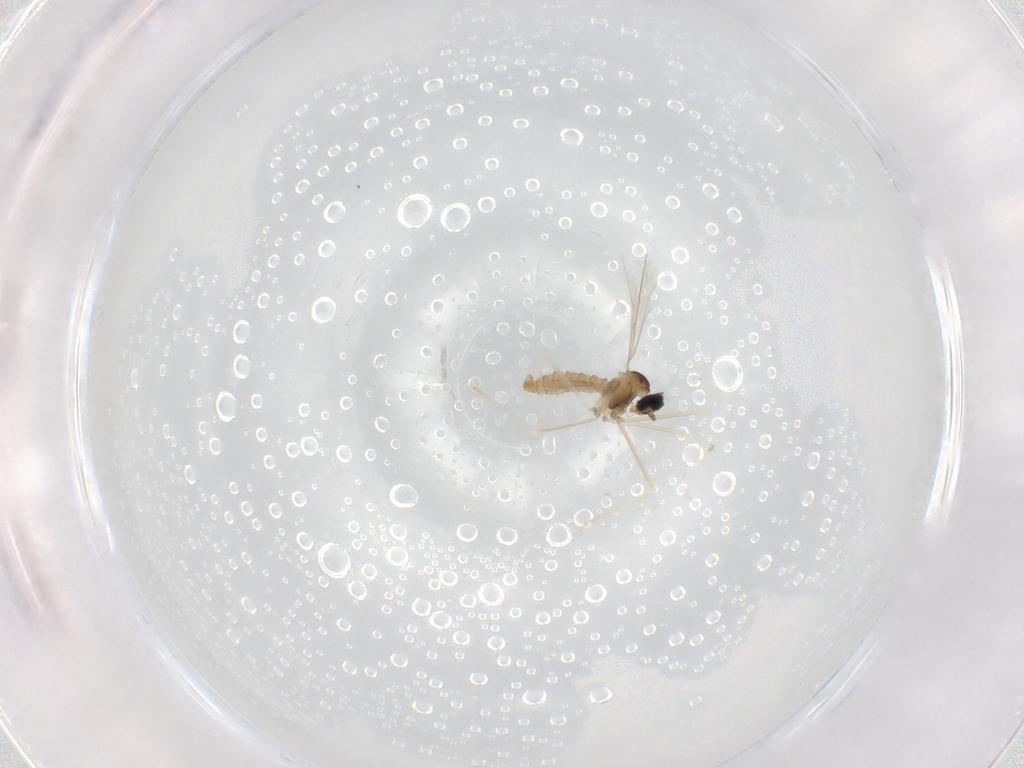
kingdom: Animalia
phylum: Arthropoda
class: Insecta
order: Diptera
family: Cecidomyiidae
